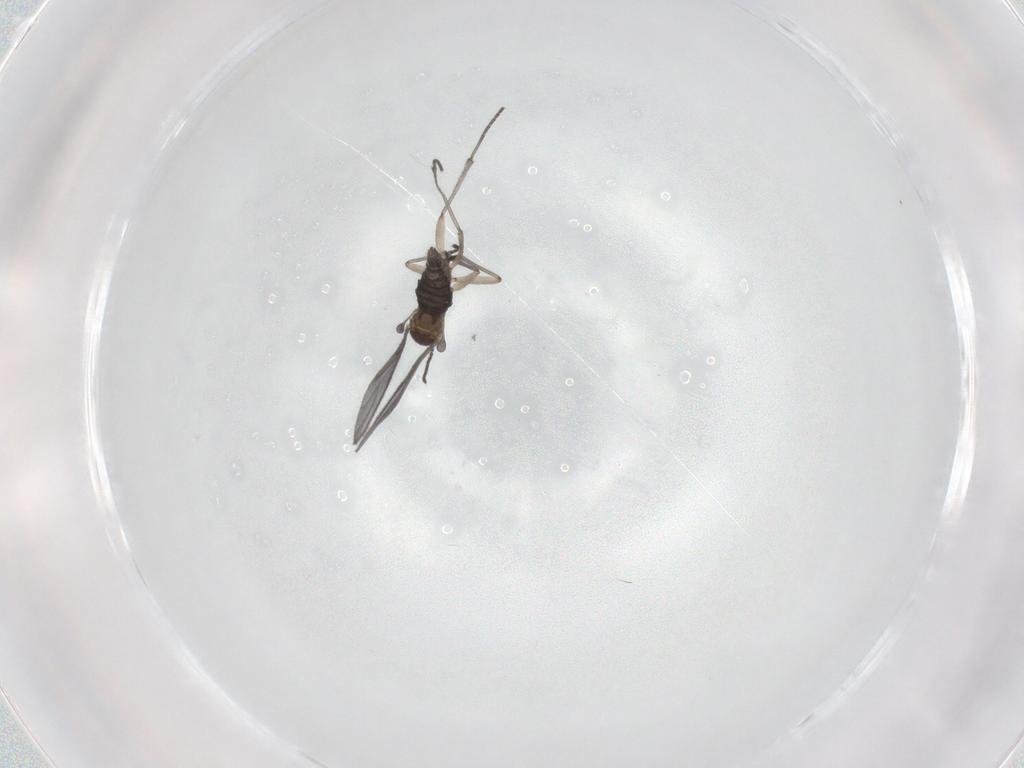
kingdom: Animalia
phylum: Arthropoda
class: Insecta
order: Diptera
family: Sciaridae
